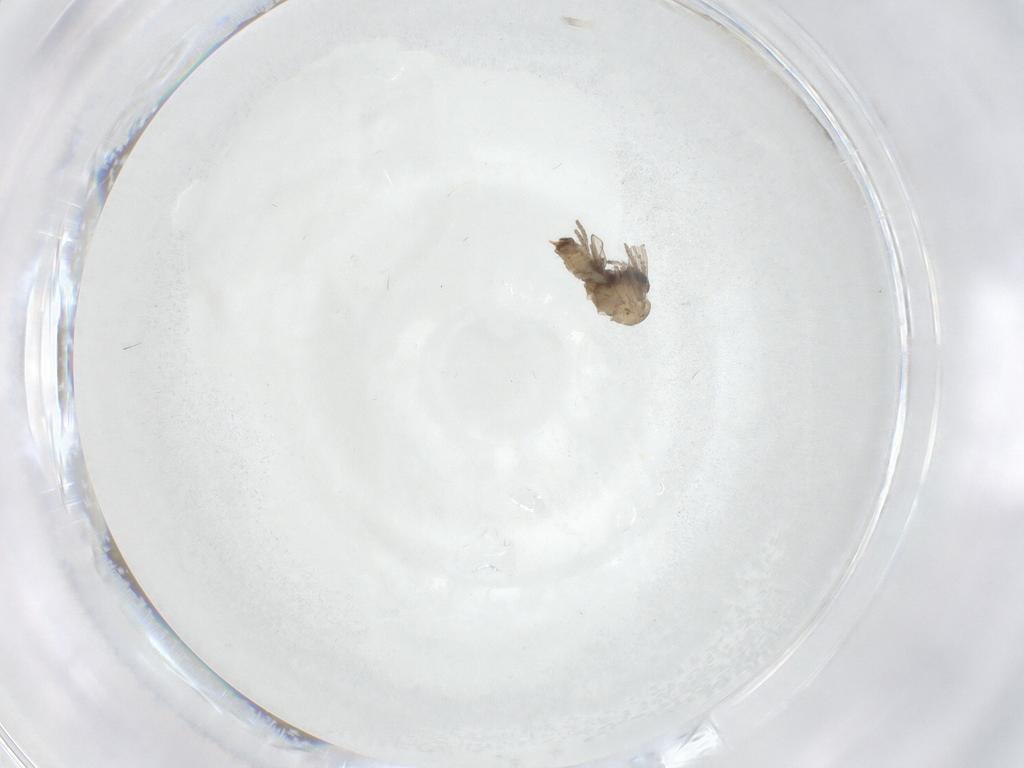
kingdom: Animalia
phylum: Arthropoda
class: Insecta
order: Diptera
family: Psychodidae
